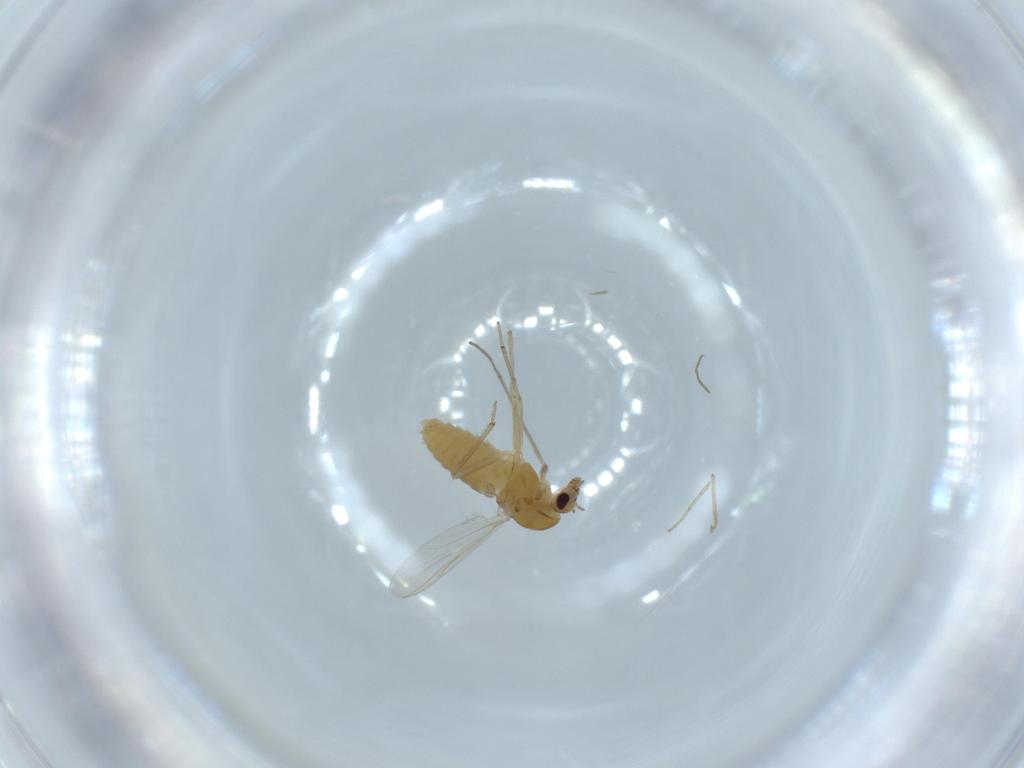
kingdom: Animalia
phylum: Arthropoda
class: Insecta
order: Diptera
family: Chironomidae
